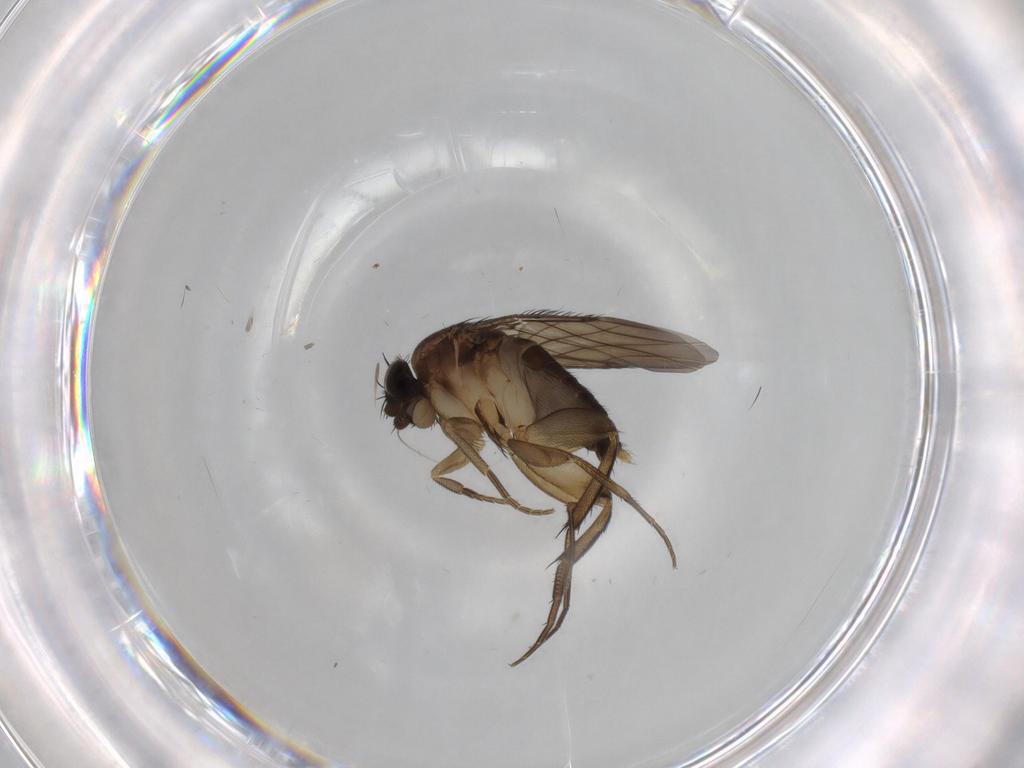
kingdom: Animalia
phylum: Arthropoda
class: Insecta
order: Diptera
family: Phoridae
